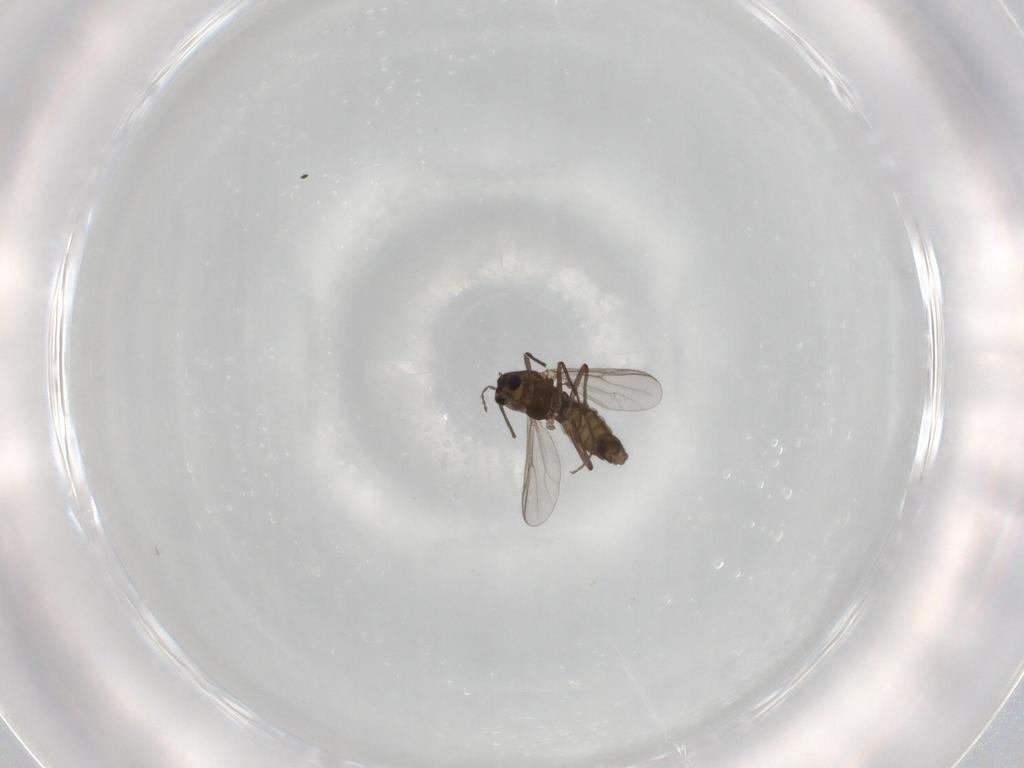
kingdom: Animalia
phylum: Arthropoda
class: Insecta
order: Diptera
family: Chironomidae
